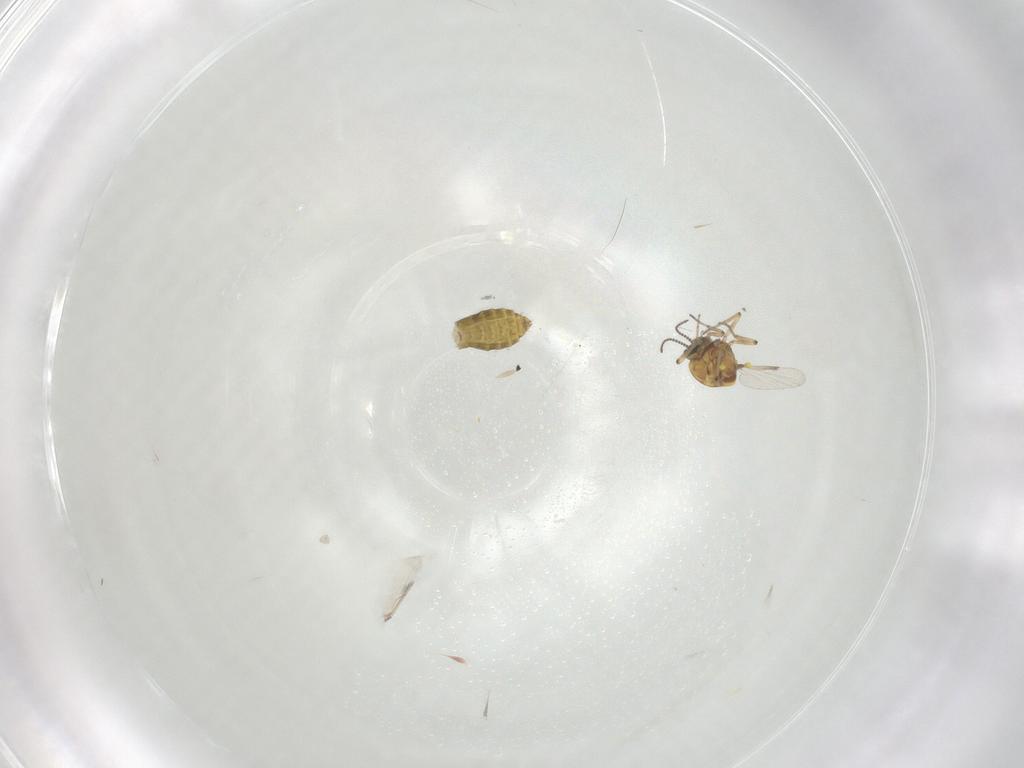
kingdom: Animalia
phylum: Arthropoda
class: Insecta
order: Diptera
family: Ceratopogonidae
